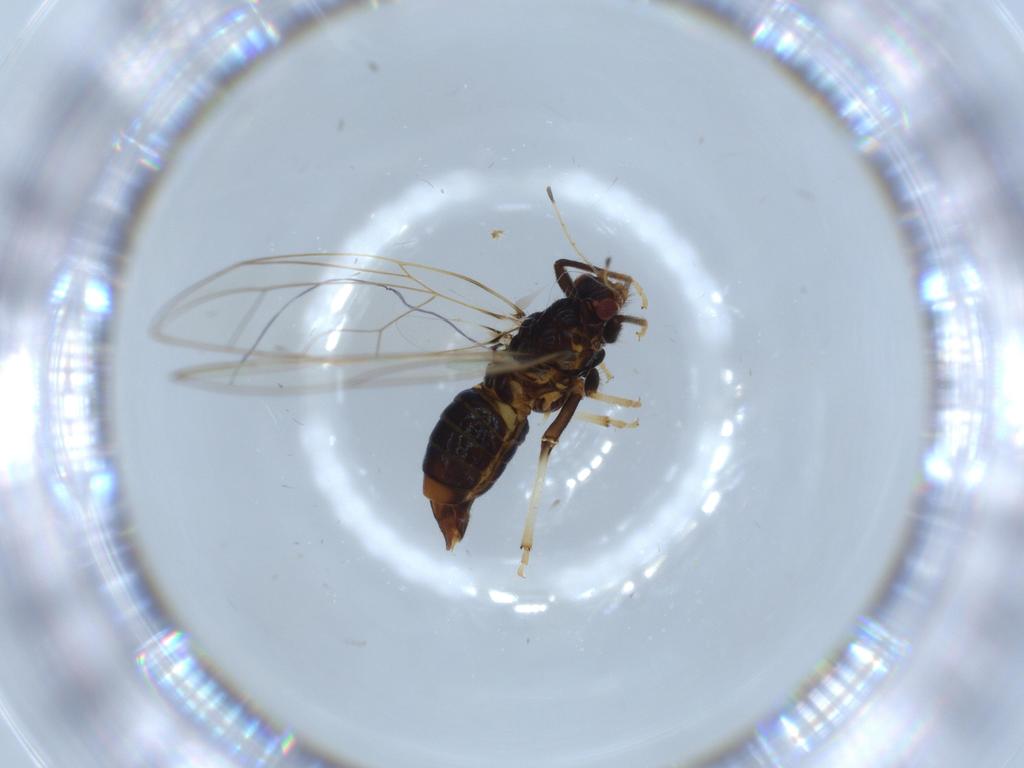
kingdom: Animalia
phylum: Arthropoda
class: Insecta
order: Hemiptera
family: Triozidae
